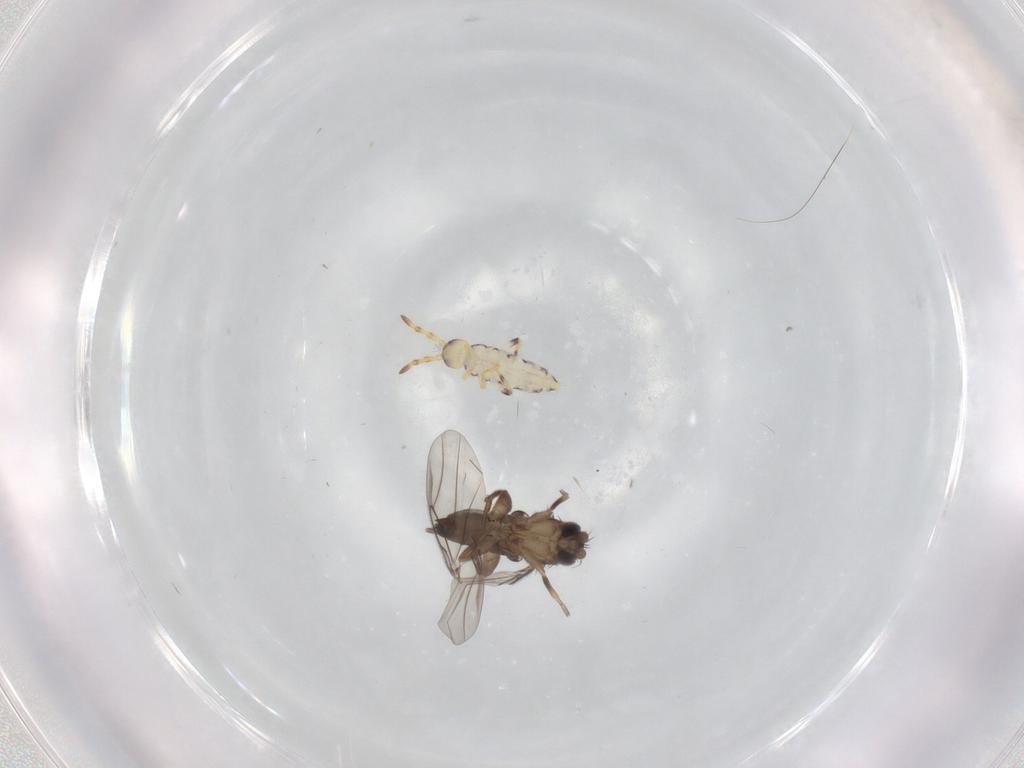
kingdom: Animalia
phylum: Arthropoda
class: Insecta
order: Diptera
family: Phoridae
